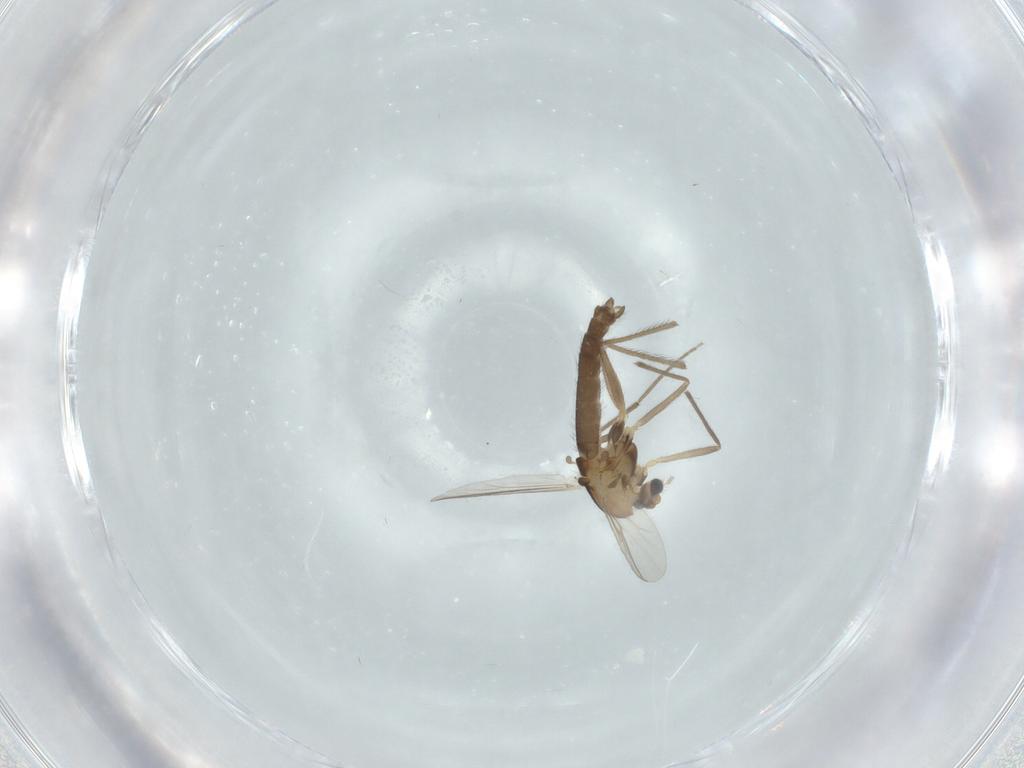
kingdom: Animalia
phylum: Arthropoda
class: Insecta
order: Diptera
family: Chironomidae
